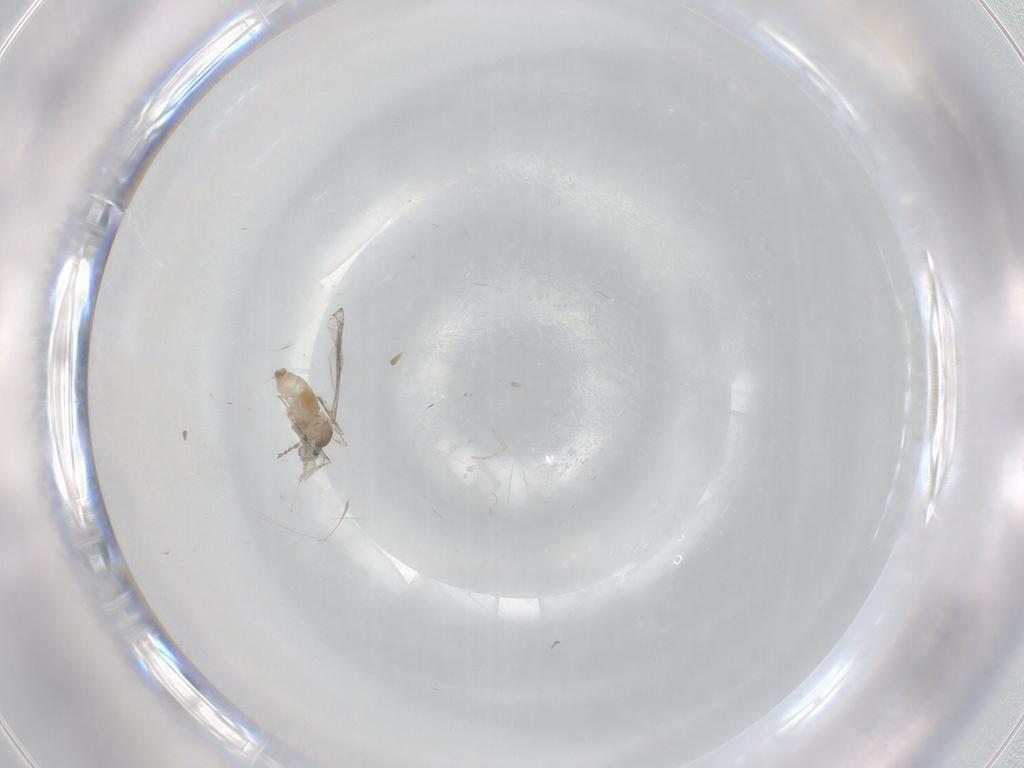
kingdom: Animalia
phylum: Arthropoda
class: Insecta
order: Diptera
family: Cecidomyiidae
